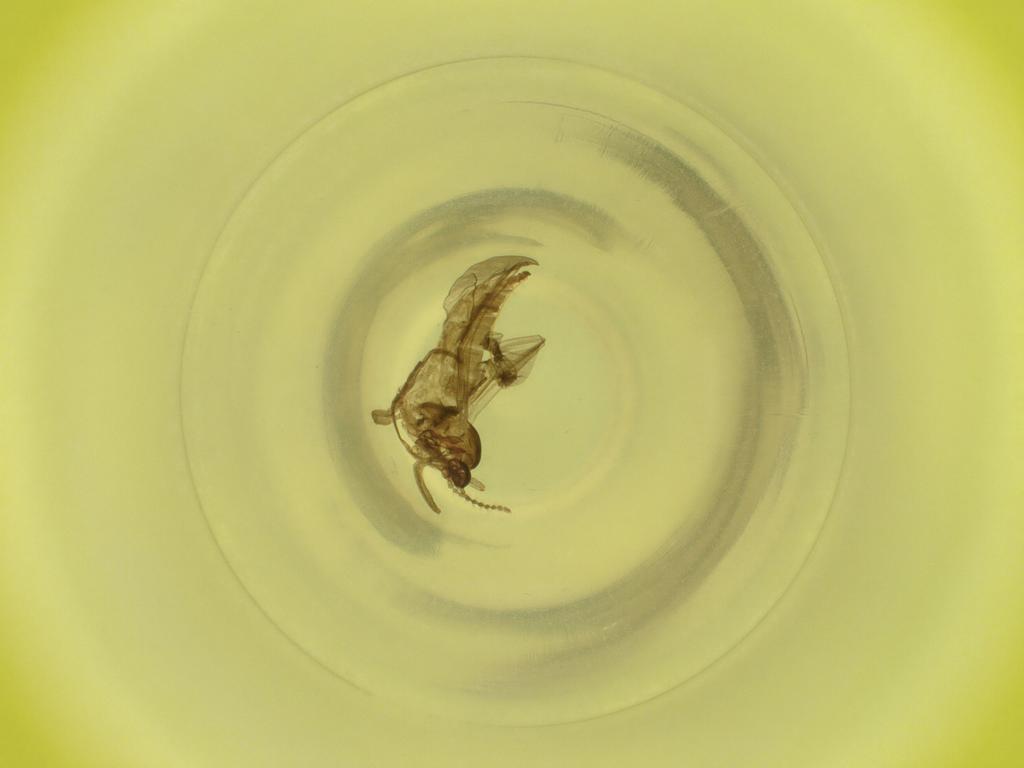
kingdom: Animalia
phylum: Arthropoda
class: Insecta
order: Diptera
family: Cecidomyiidae
